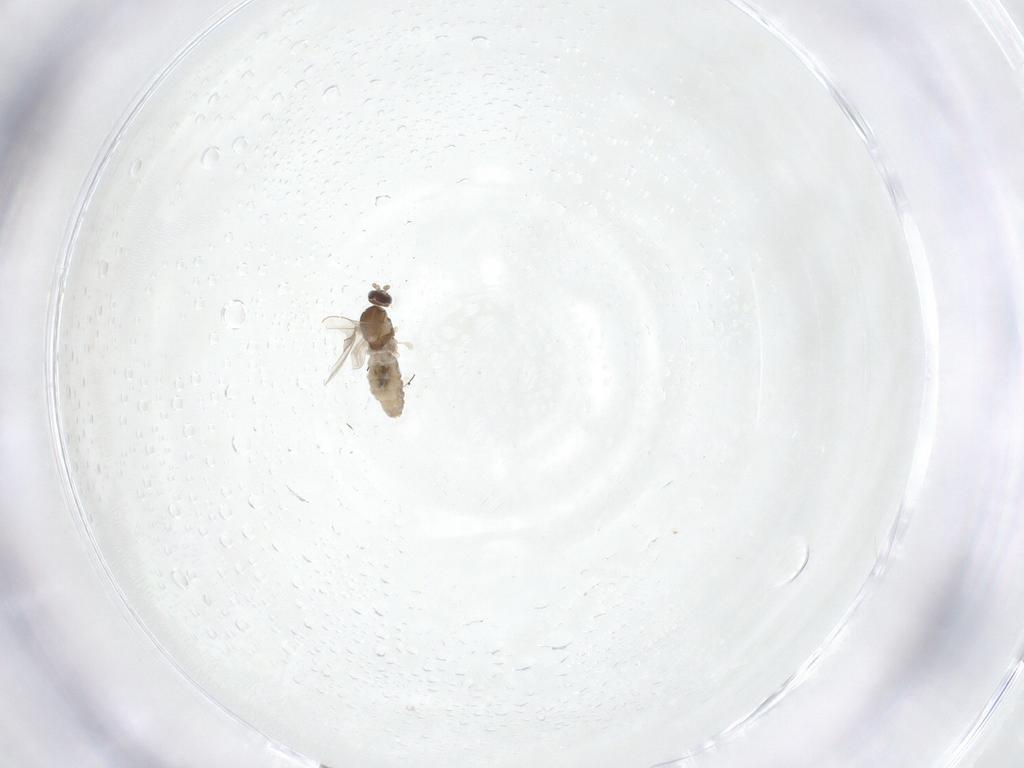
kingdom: Animalia
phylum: Arthropoda
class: Insecta
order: Diptera
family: Cecidomyiidae
